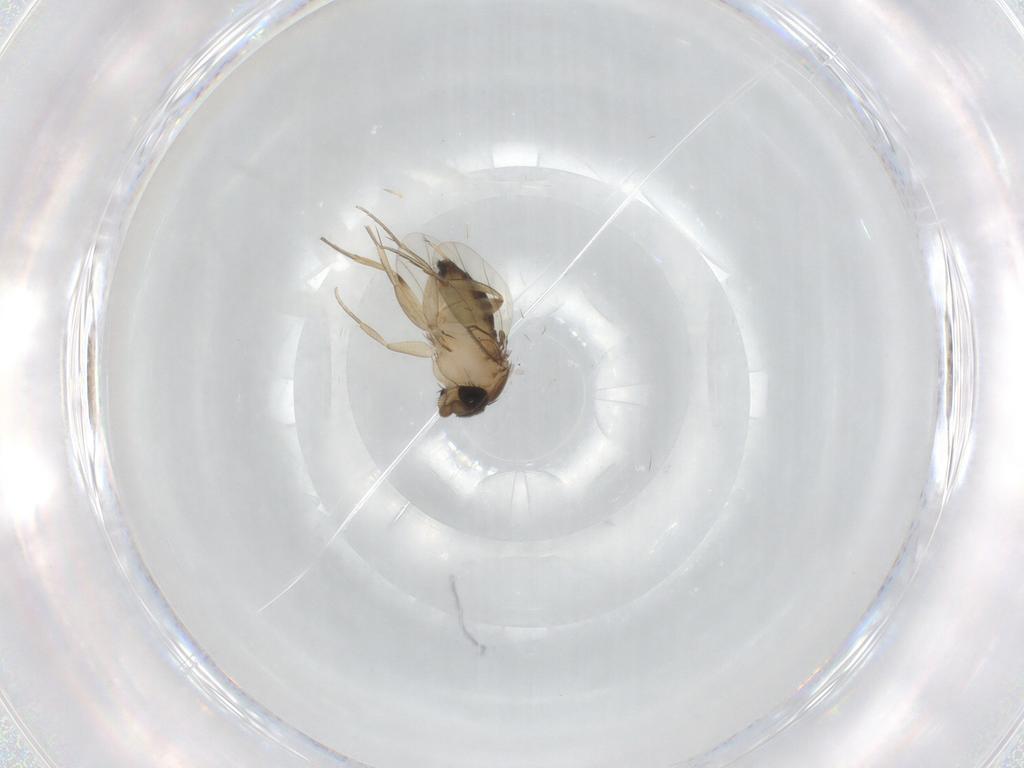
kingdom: Animalia
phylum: Arthropoda
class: Insecta
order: Diptera
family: Phoridae
